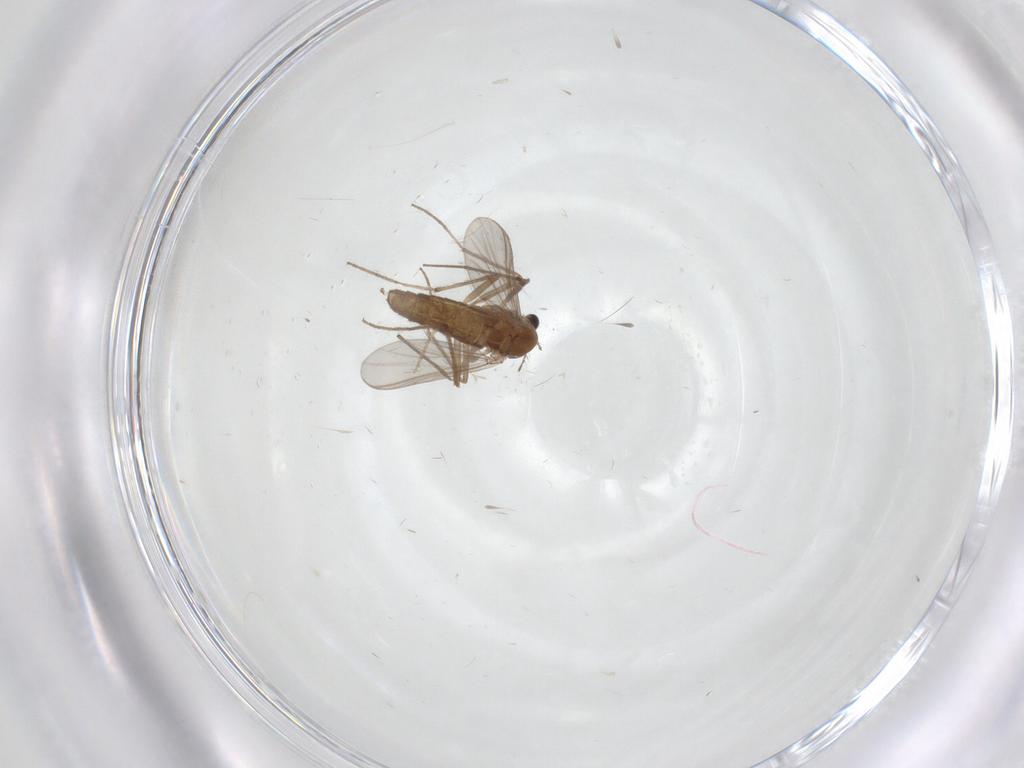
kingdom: Animalia
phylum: Arthropoda
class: Insecta
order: Diptera
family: Chironomidae
